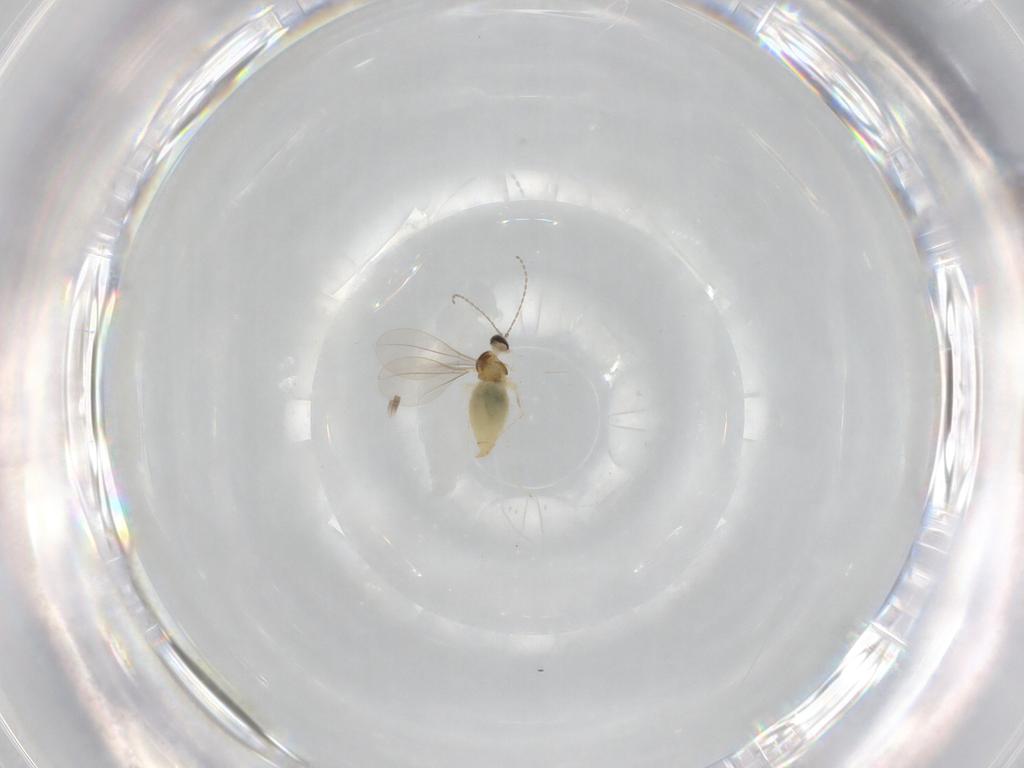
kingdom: Animalia
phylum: Arthropoda
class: Insecta
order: Diptera
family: Cecidomyiidae
